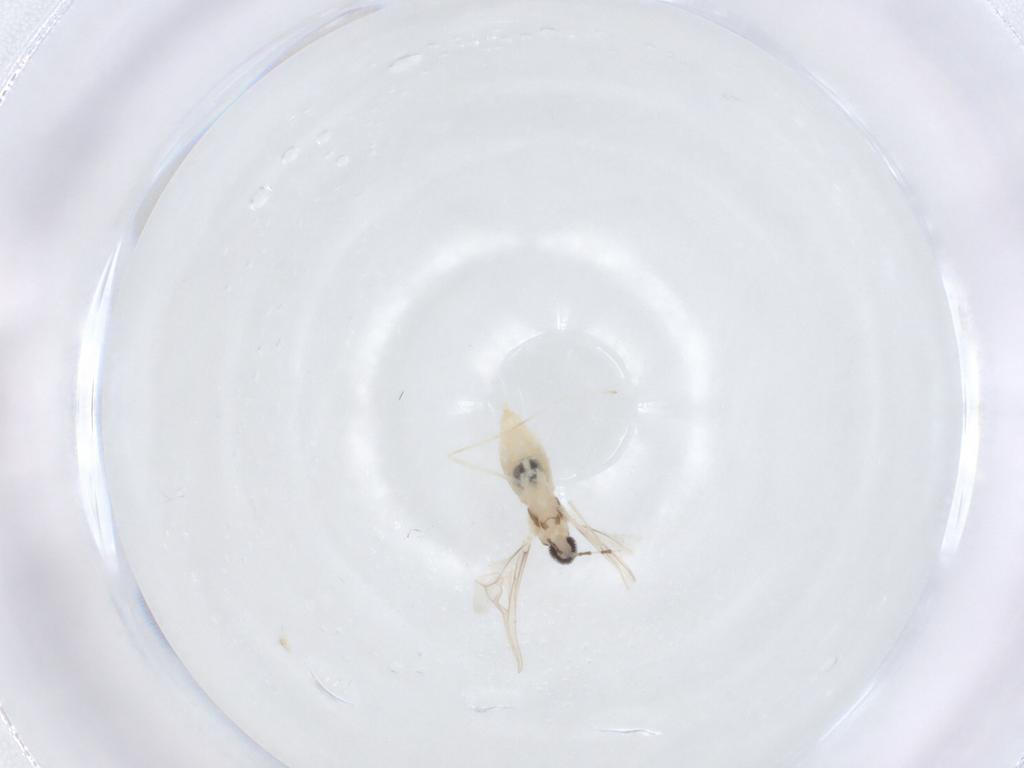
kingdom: Animalia
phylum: Arthropoda
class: Insecta
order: Diptera
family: Cecidomyiidae
